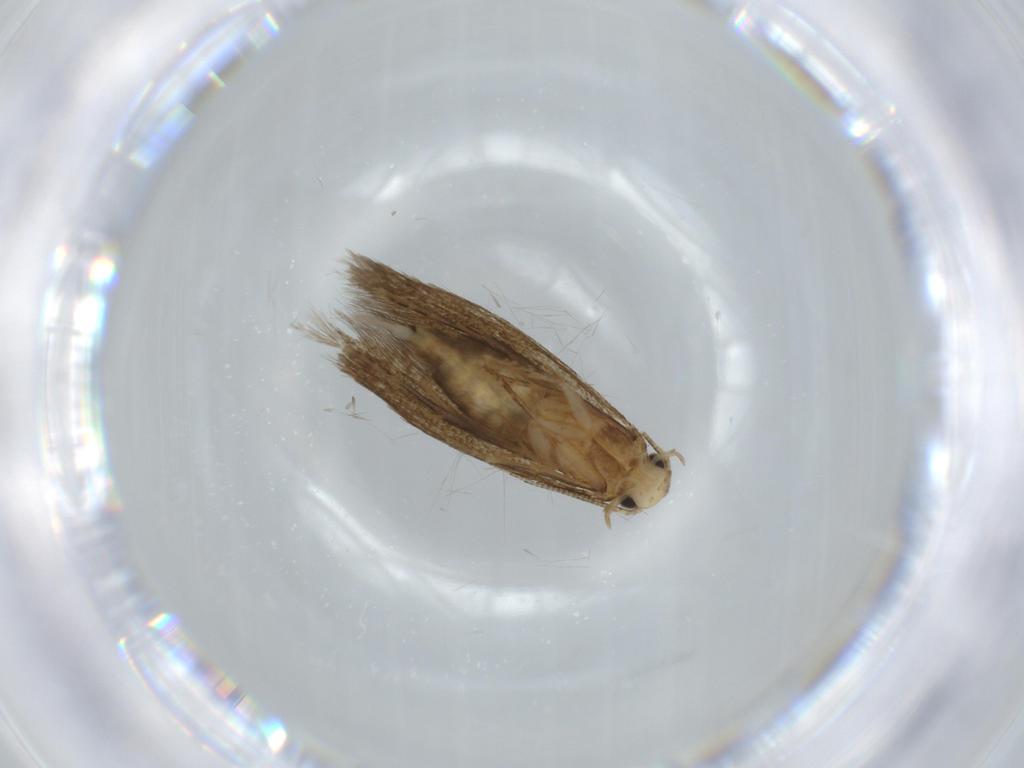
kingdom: Animalia
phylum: Arthropoda
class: Insecta
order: Lepidoptera
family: Tineidae
